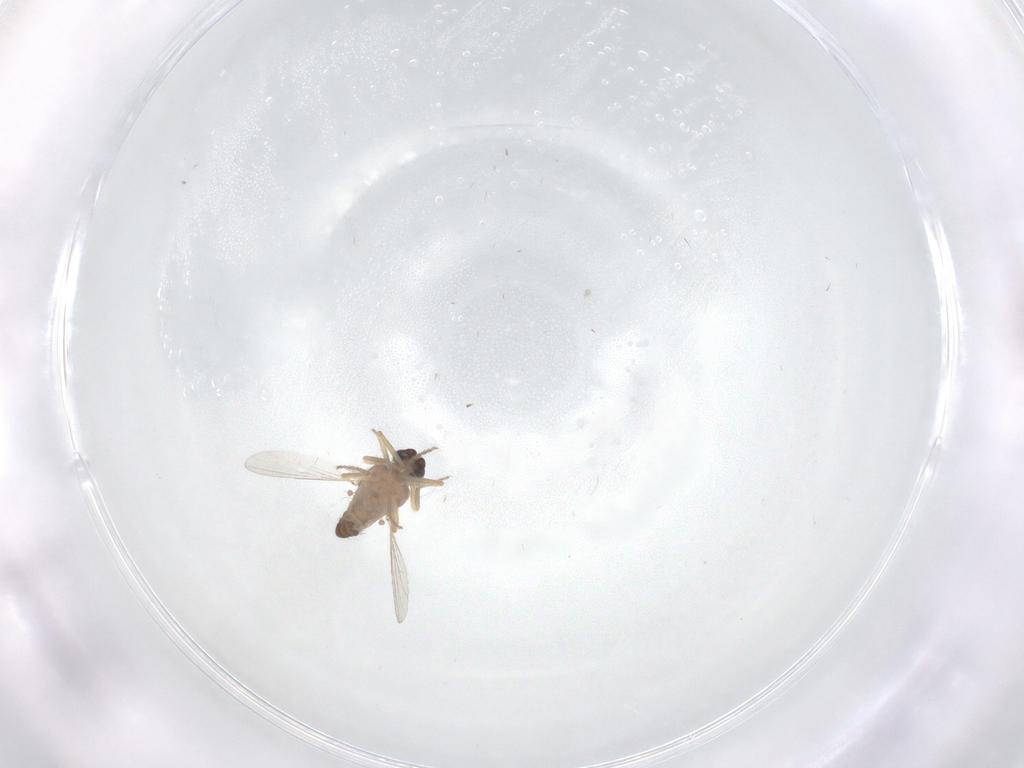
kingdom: Animalia
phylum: Arthropoda
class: Insecta
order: Diptera
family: Ceratopogonidae
